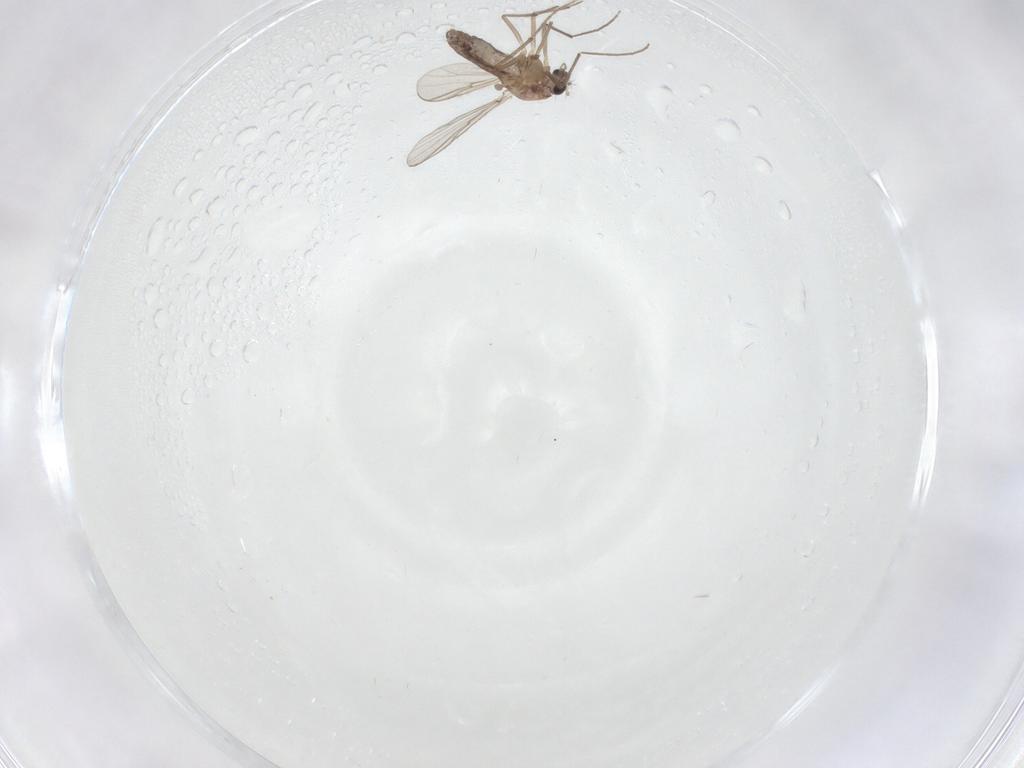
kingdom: Animalia
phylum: Arthropoda
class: Insecta
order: Diptera
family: Chironomidae
